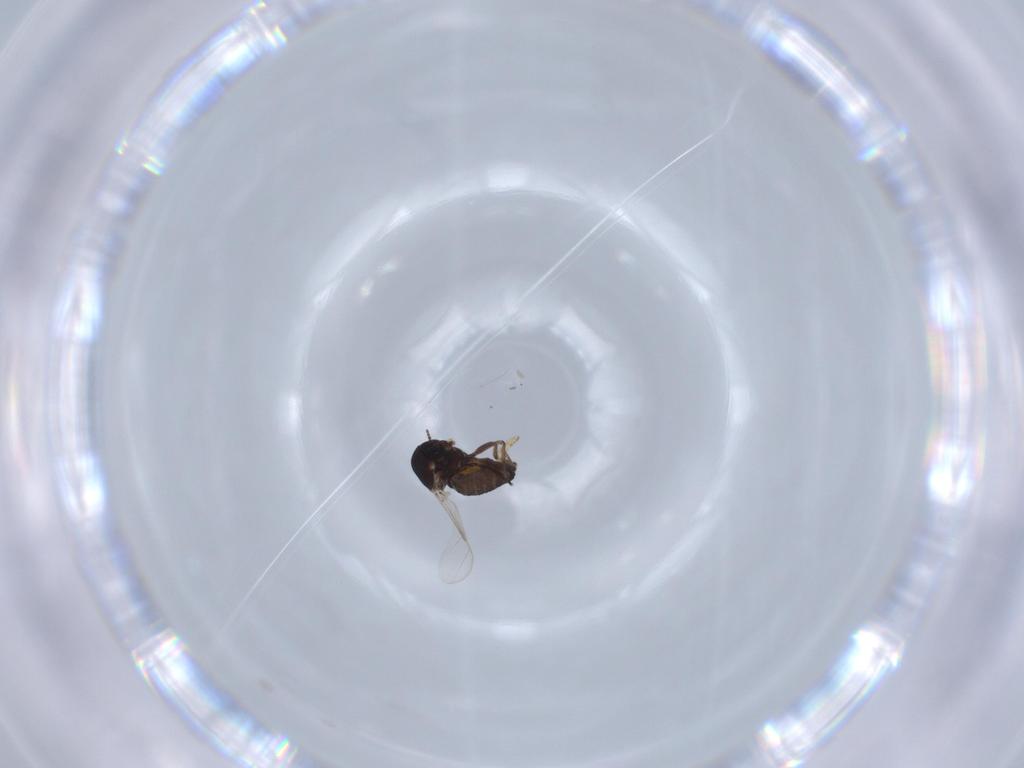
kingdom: Animalia
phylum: Arthropoda
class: Insecta
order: Diptera
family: Ceratopogonidae
